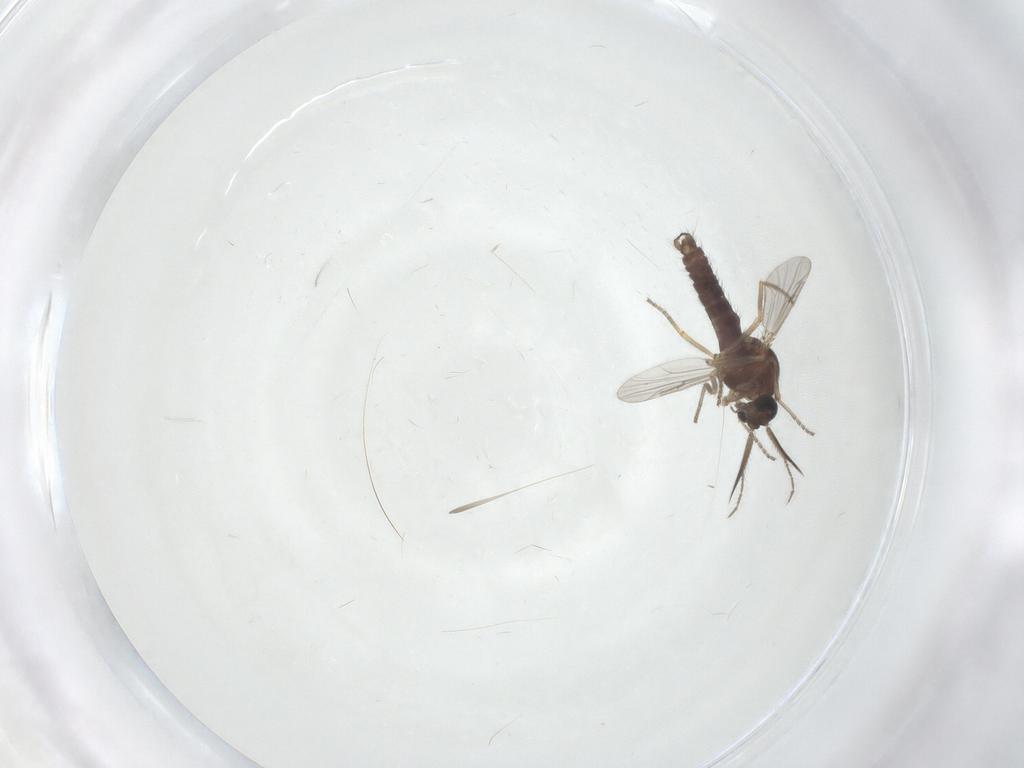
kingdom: Animalia
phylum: Arthropoda
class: Insecta
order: Diptera
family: Ceratopogonidae
